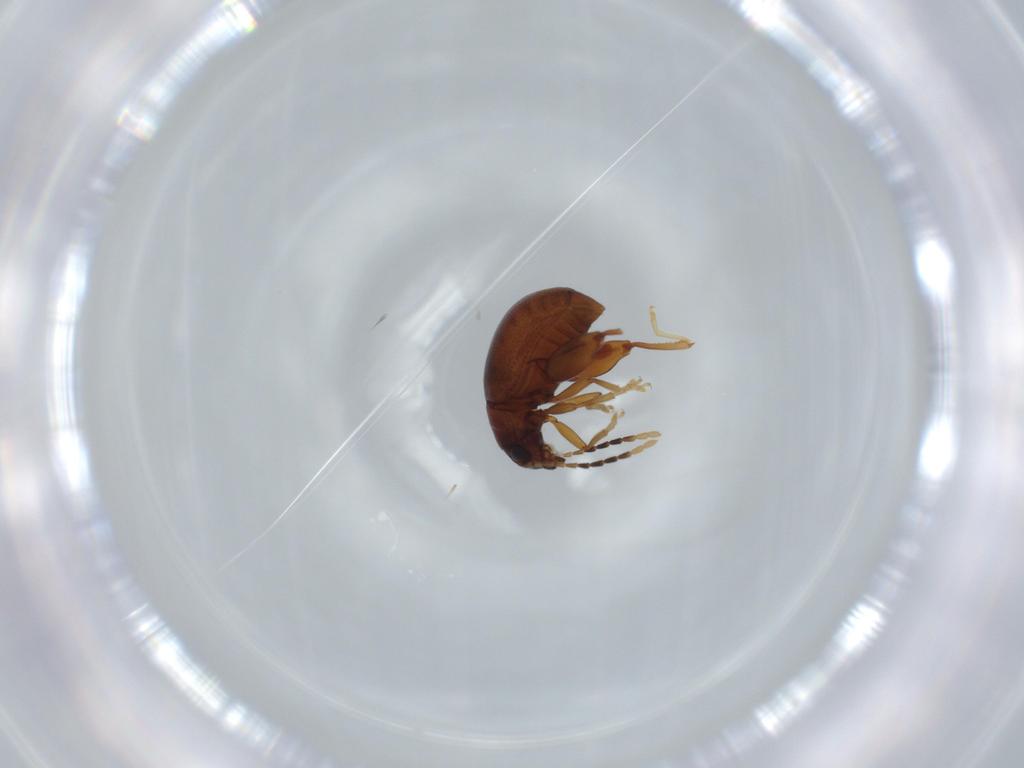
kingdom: Animalia
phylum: Arthropoda
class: Insecta
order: Coleoptera
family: Chrysomelidae
